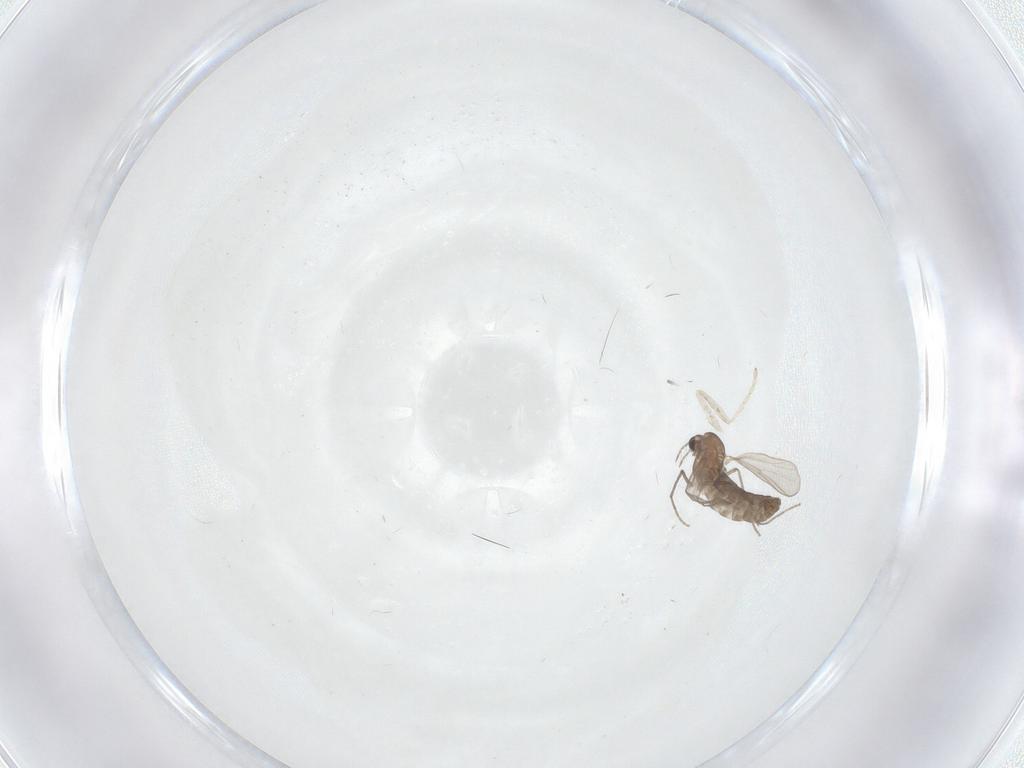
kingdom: Animalia
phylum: Arthropoda
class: Insecta
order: Diptera
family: Chironomidae
